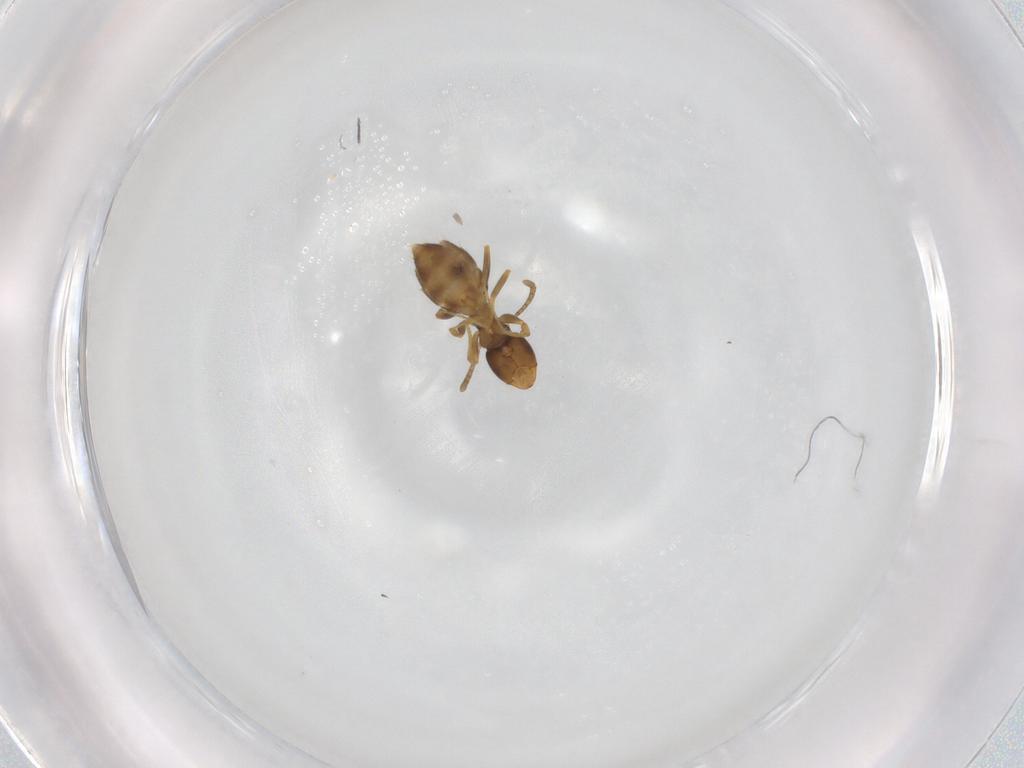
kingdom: Animalia
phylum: Arthropoda
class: Insecta
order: Hymenoptera
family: Formicidae
